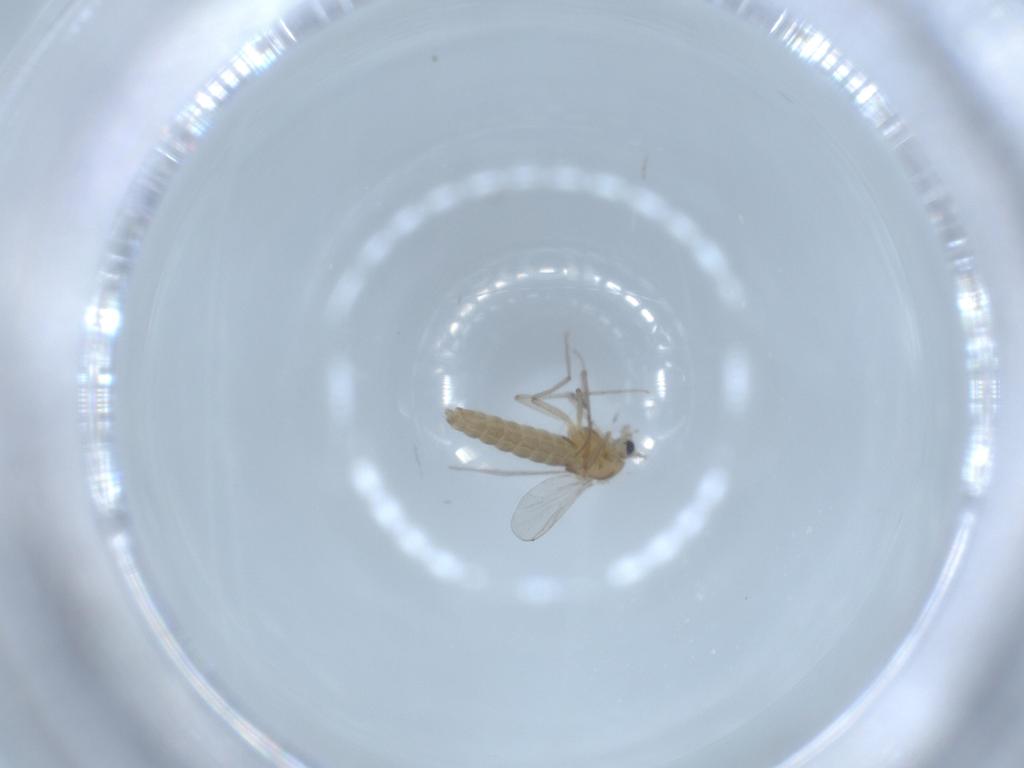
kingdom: Animalia
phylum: Arthropoda
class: Insecta
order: Diptera
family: Chironomidae
